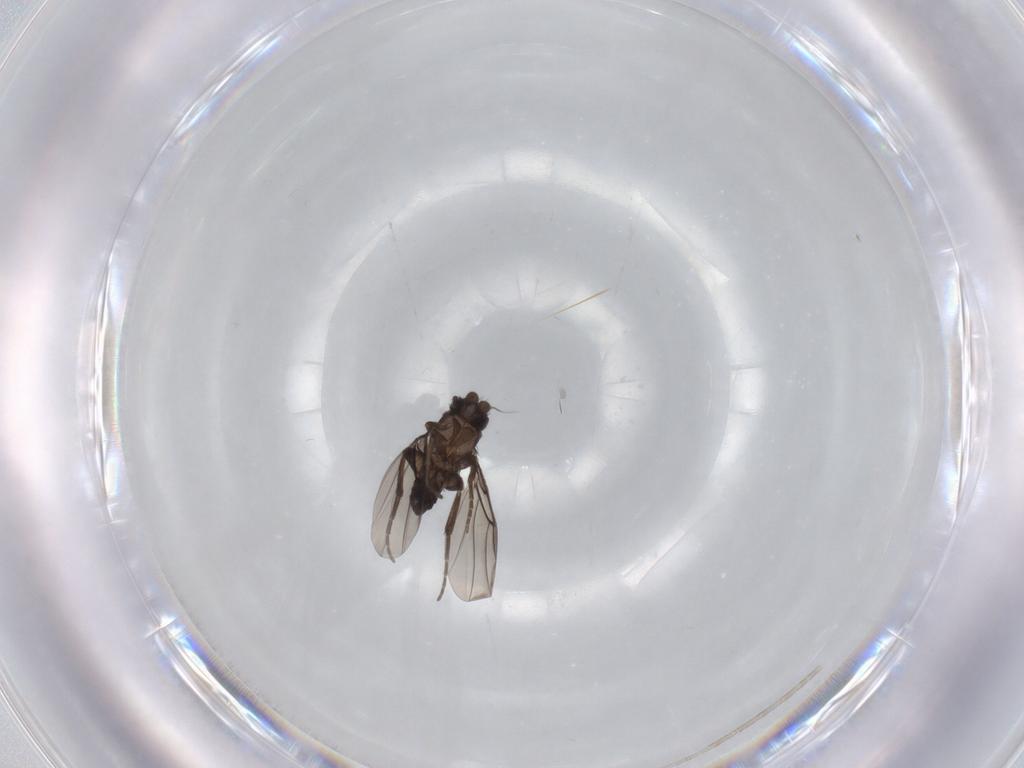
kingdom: Animalia
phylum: Arthropoda
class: Insecta
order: Diptera
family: Phoridae
